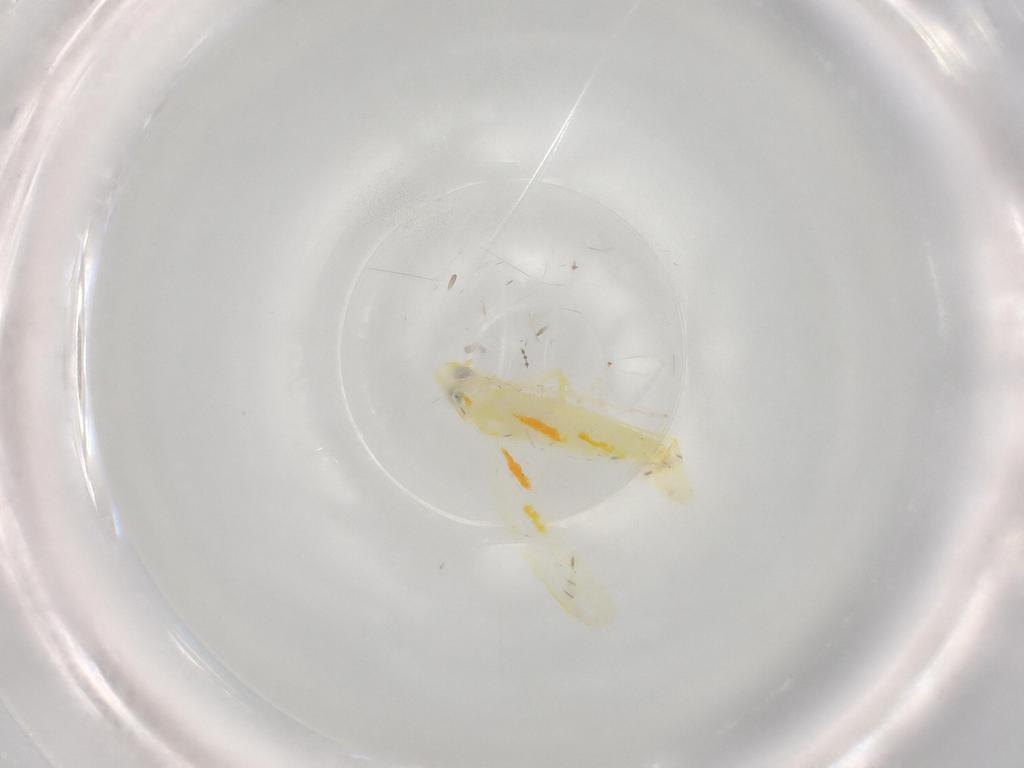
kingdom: Animalia
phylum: Arthropoda
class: Insecta
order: Hemiptera
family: Cicadellidae
